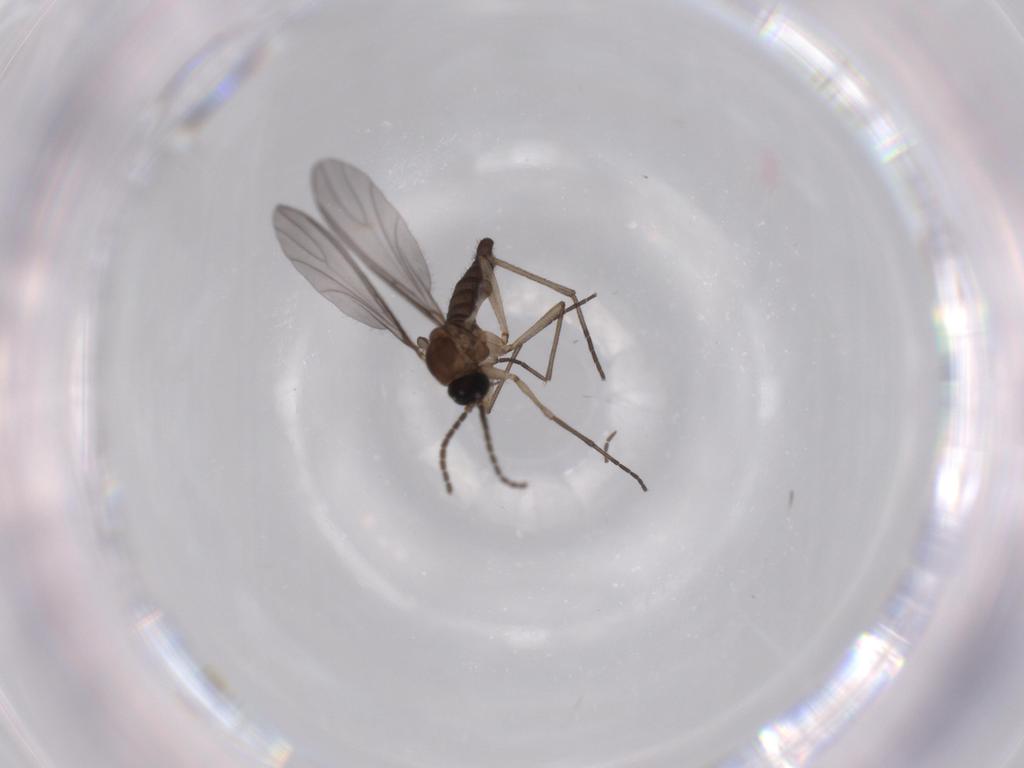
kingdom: Animalia
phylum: Arthropoda
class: Insecta
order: Diptera
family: Sciaridae
